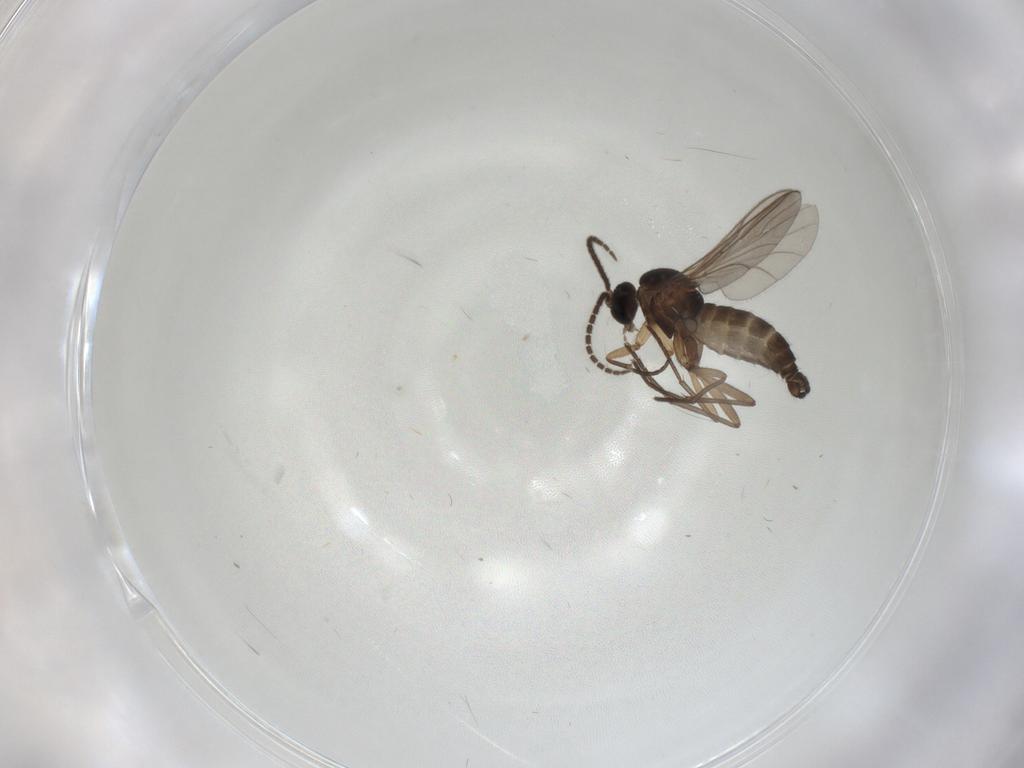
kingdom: Animalia
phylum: Arthropoda
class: Insecta
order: Diptera
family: Sciaridae
